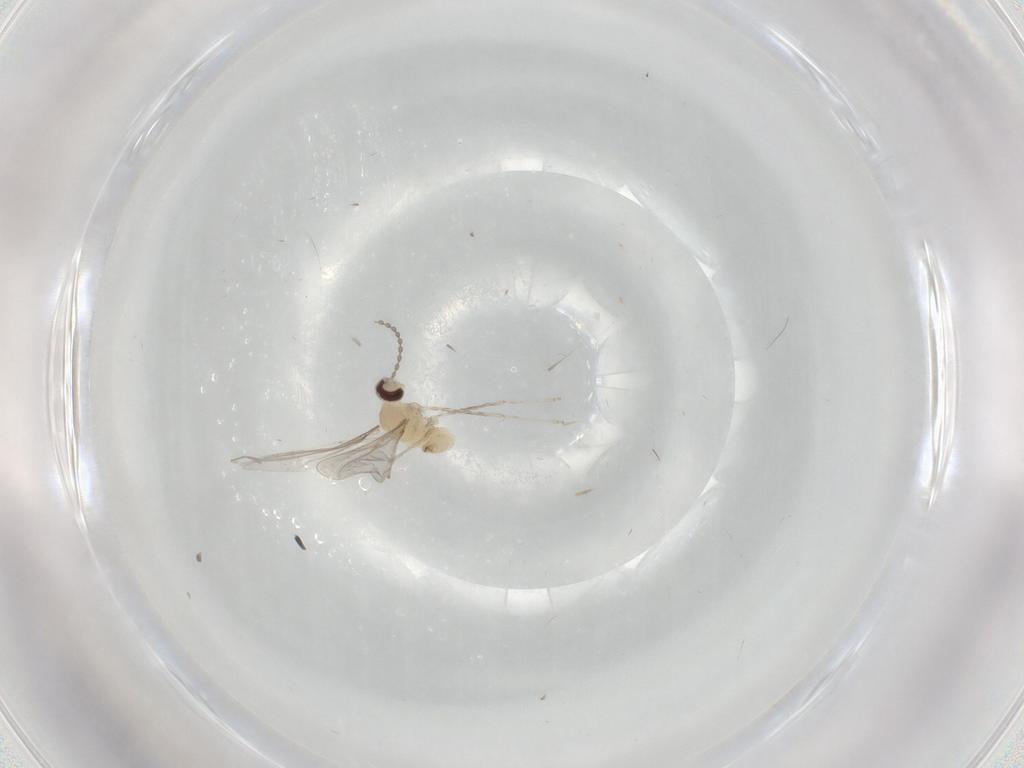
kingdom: Animalia
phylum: Arthropoda
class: Insecta
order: Diptera
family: Cecidomyiidae
